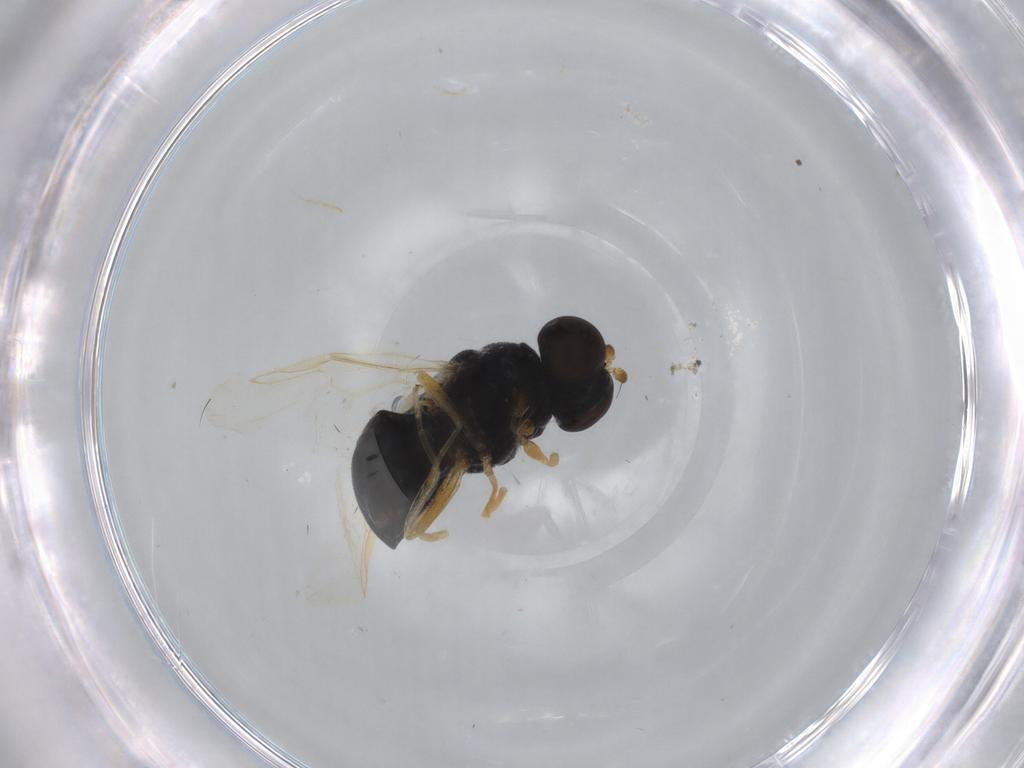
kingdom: Animalia
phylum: Arthropoda
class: Insecta
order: Diptera
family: Stratiomyidae
